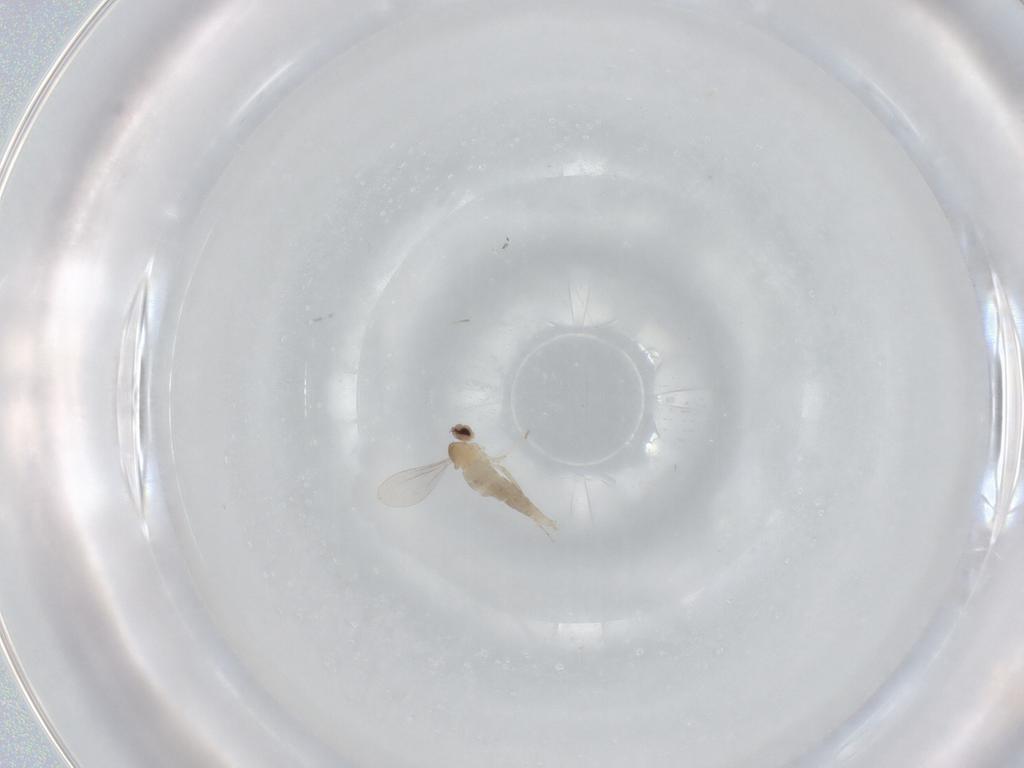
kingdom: Animalia
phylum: Arthropoda
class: Insecta
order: Diptera
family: Cecidomyiidae
